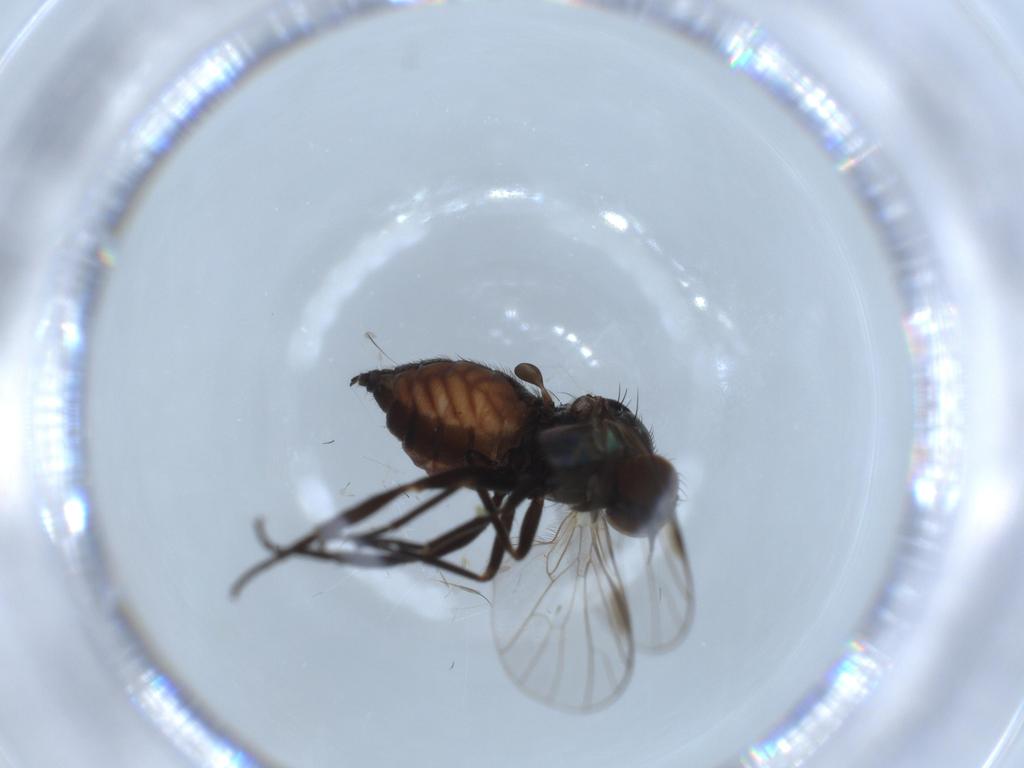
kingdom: Animalia
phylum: Arthropoda
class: Insecta
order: Diptera
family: Empididae
